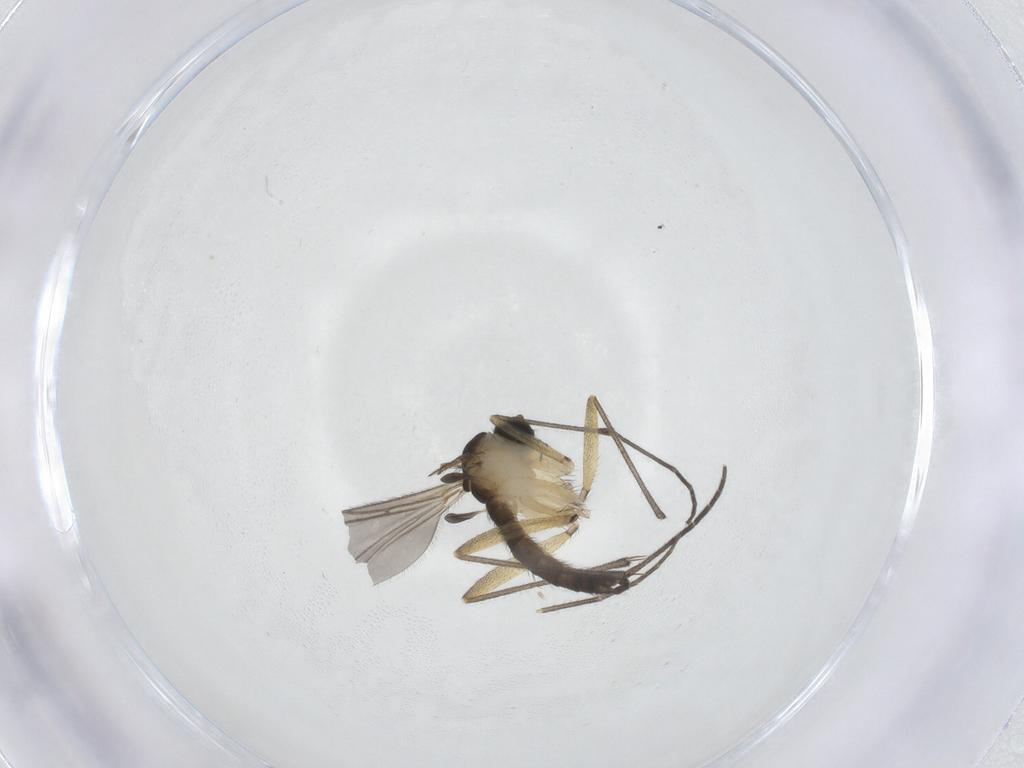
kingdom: Animalia
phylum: Arthropoda
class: Insecta
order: Diptera
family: Sciaridae
